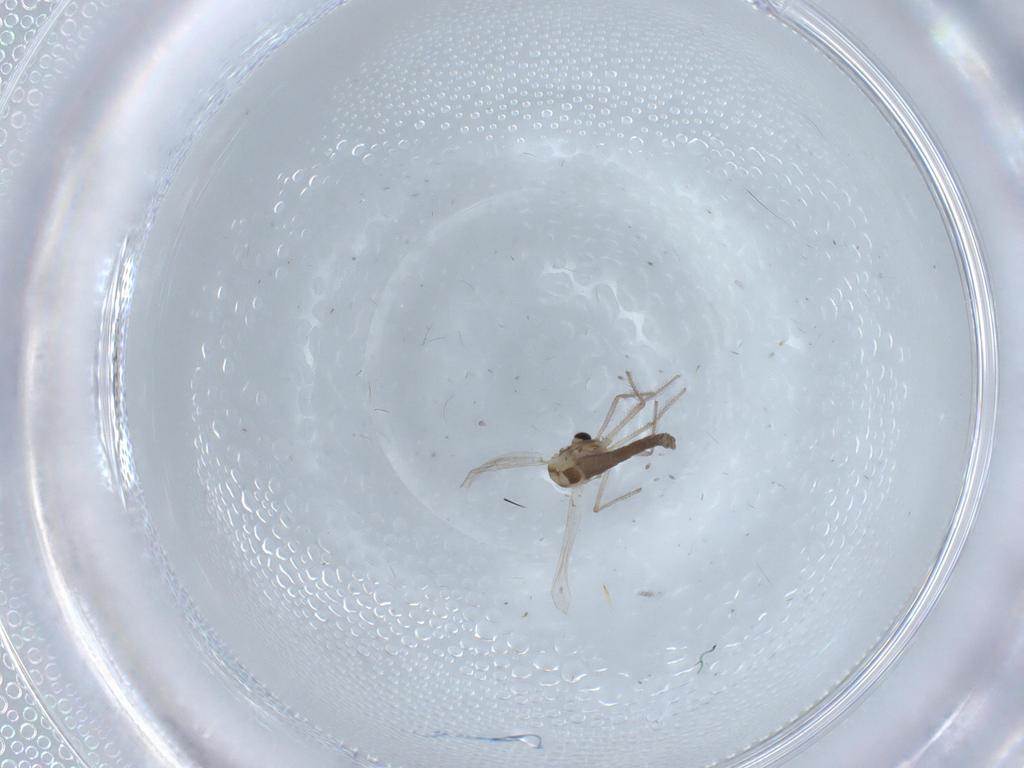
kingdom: Animalia
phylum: Arthropoda
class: Insecta
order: Diptera
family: Chironomidae
